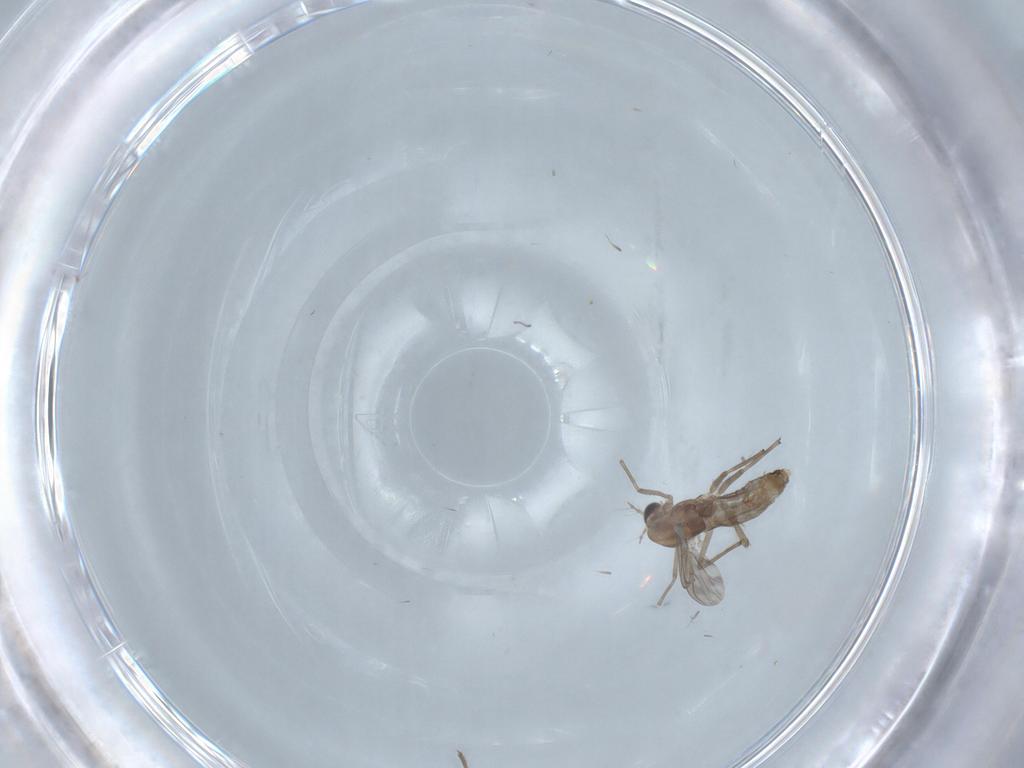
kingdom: Animalia
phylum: Arthropoda
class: Insecta
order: Diptera
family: Chironomidae
